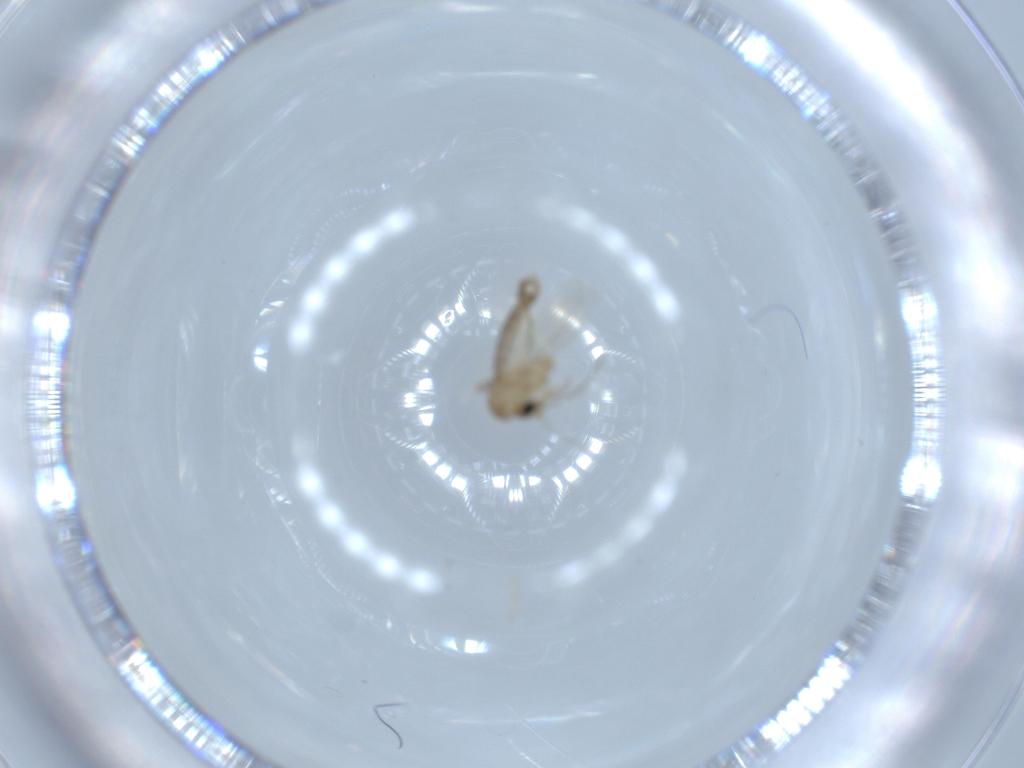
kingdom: Animalia
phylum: Arthropoda
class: Insecta
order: Diptera
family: Psychodidae
